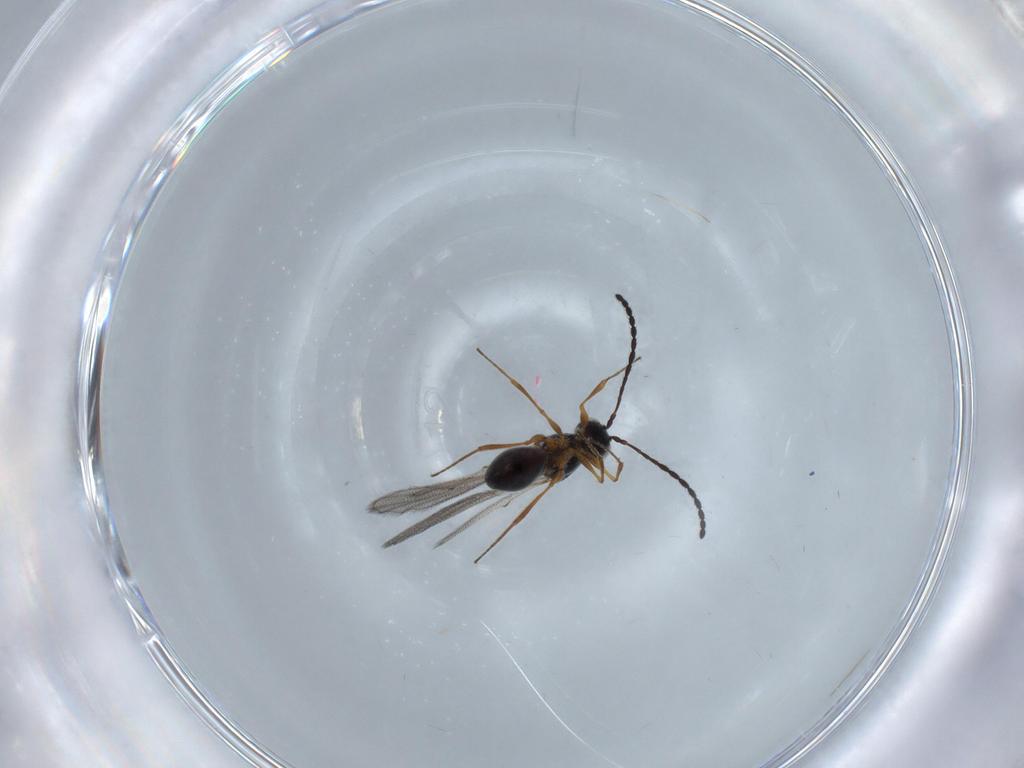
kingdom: Animalia
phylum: Arthropoda
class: Insecta
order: Hymenoptera
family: Figitidae
